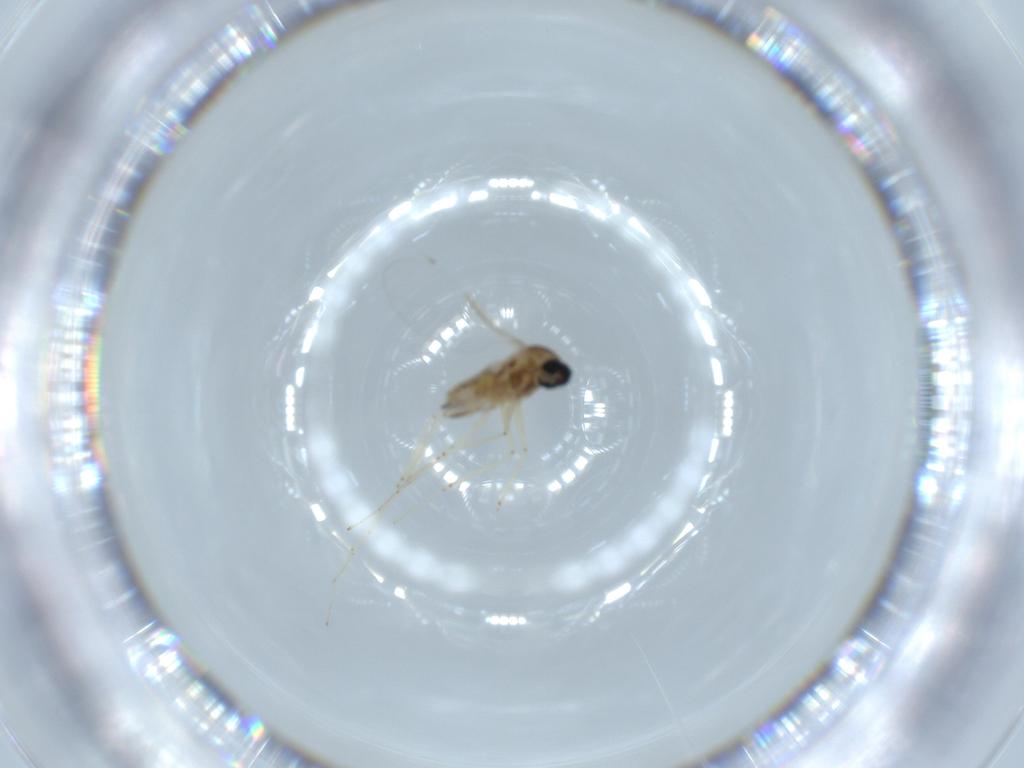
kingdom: Animalia
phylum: Arthropoda
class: Insecta
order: Diptera
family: Cecidomyiidae
